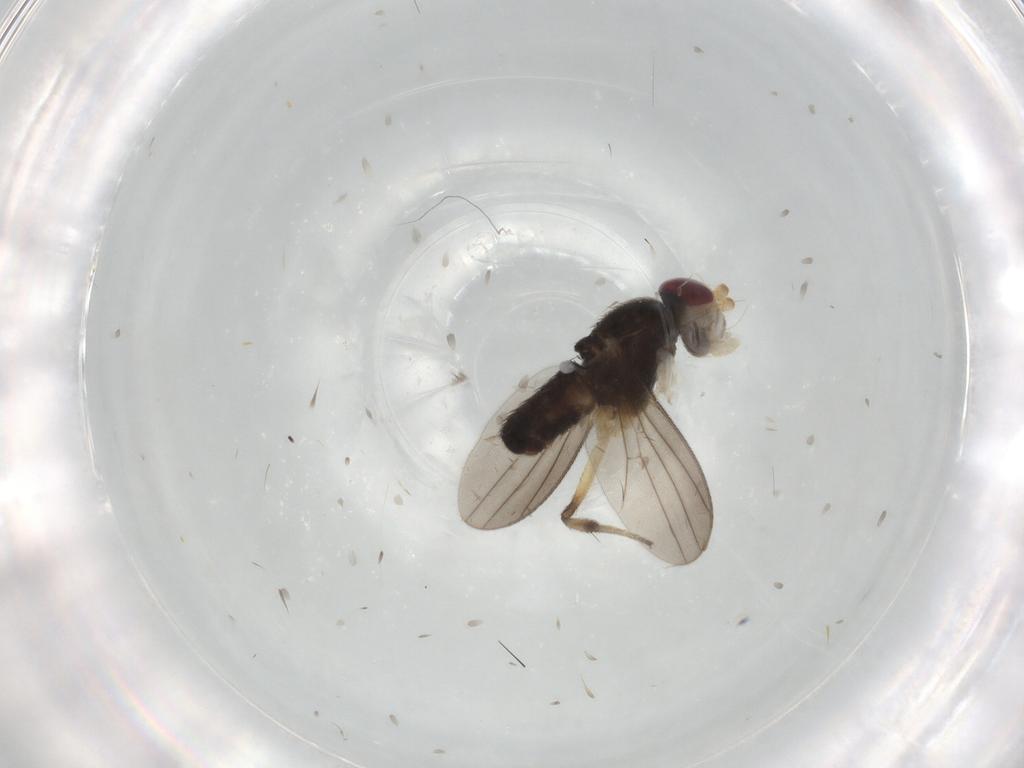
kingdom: Animalia
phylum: Arthropoda
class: Insecta
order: Diptera
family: Clusiidae
